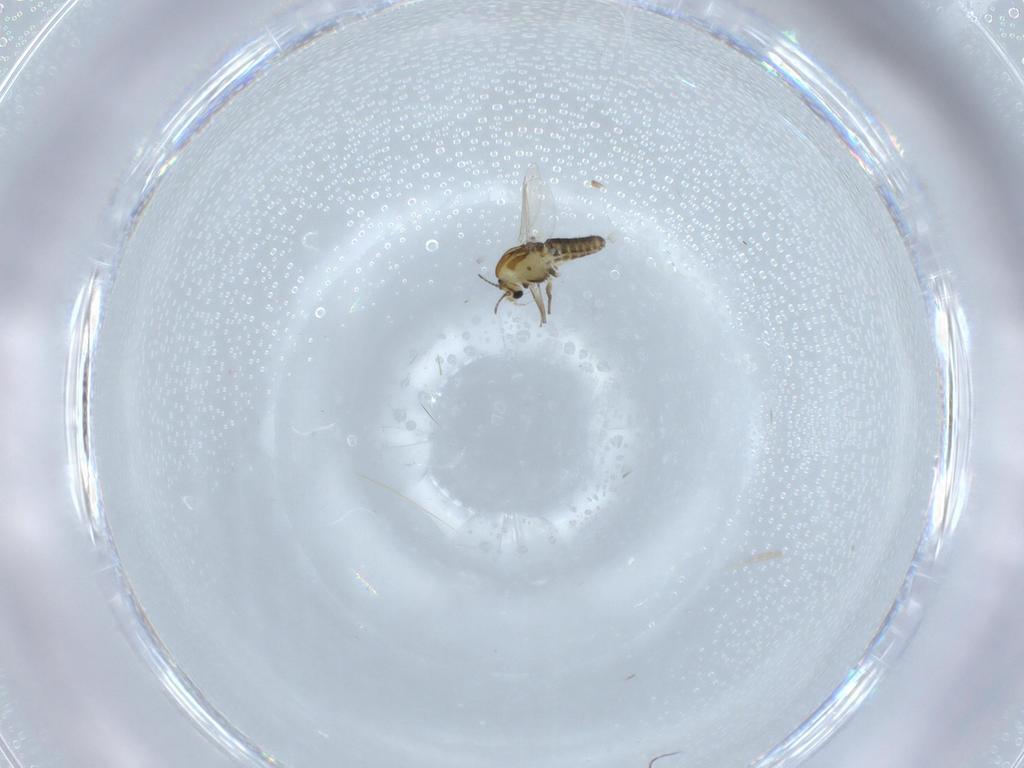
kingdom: Animalia
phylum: Arthropoda
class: Insecta
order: Diptera
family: Chironomidae
